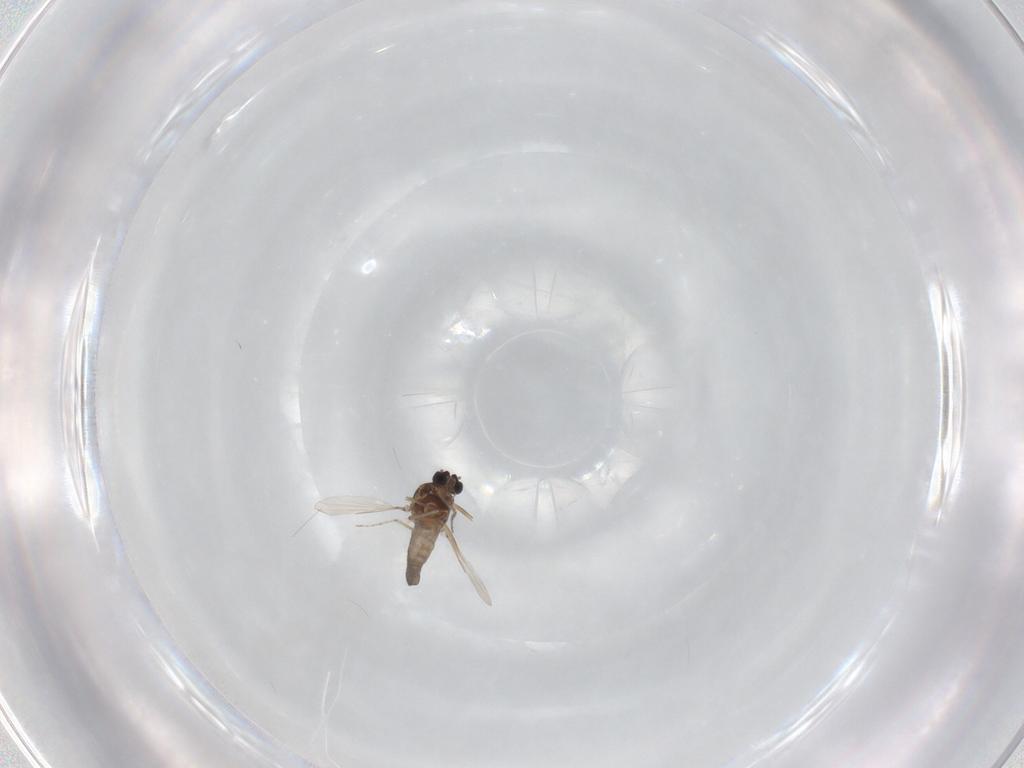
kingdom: Animalia
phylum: Arthropoda
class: Insecta
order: Diptera
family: Ceratopogonidae
